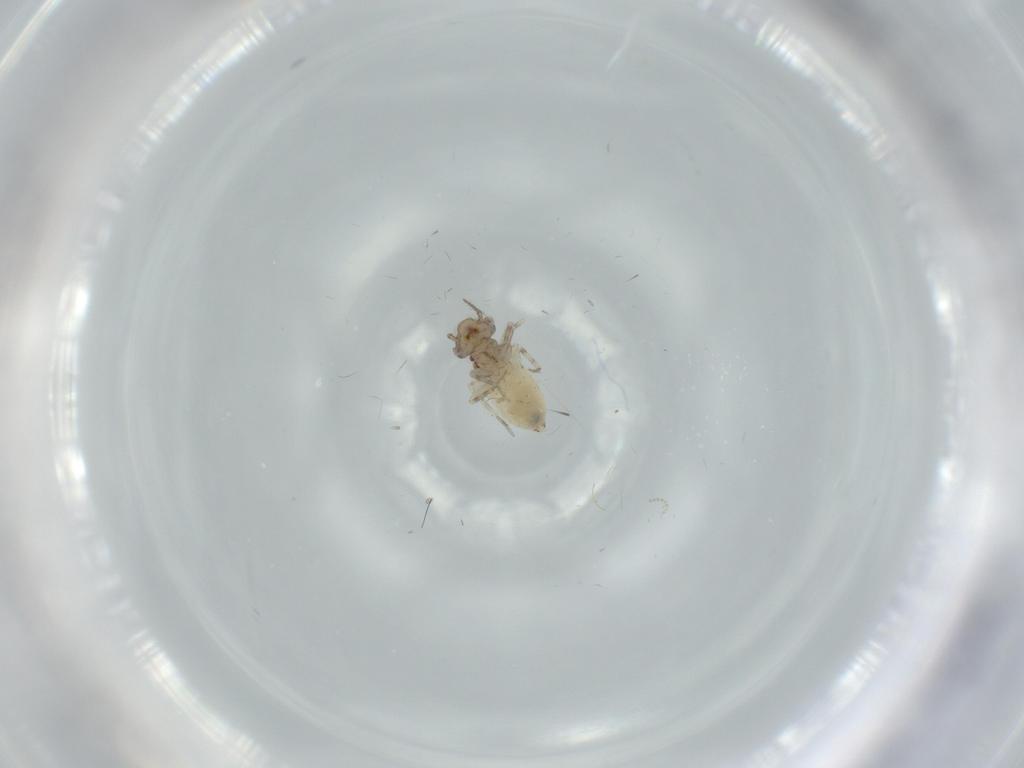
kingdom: Animalia
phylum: Arthropoda
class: Insecta
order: Psocodea
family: Lepidopsocidae
